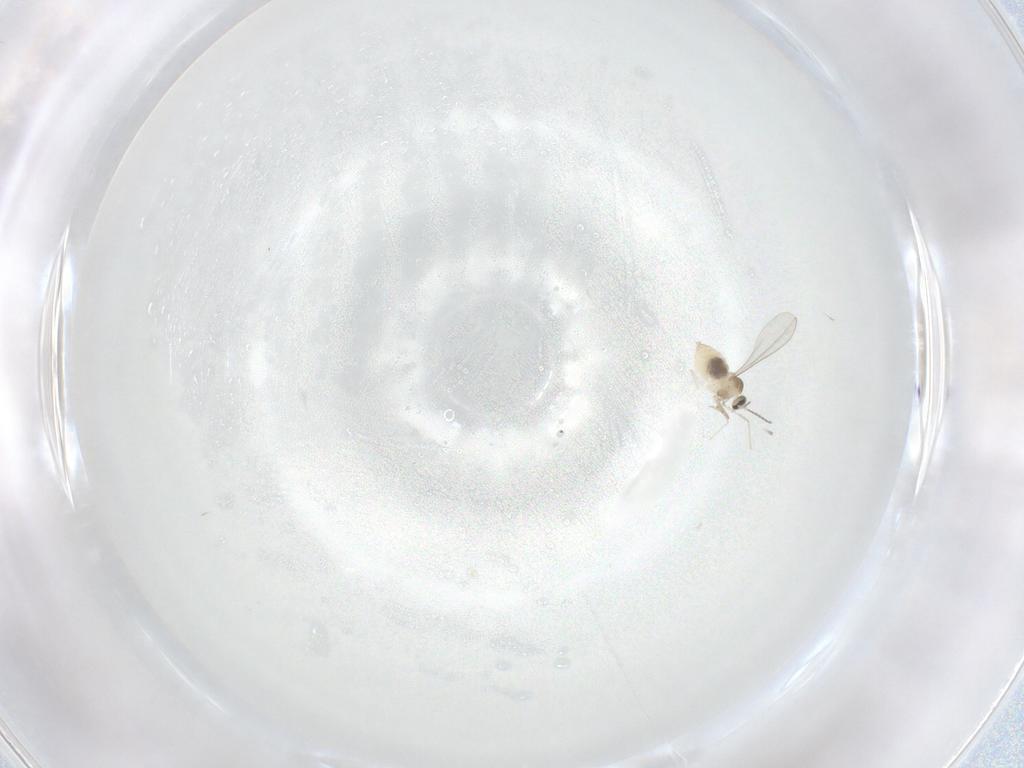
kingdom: Animalia
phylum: Arthropoda
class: Insecta
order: Diptera
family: Cecidomyiidae
